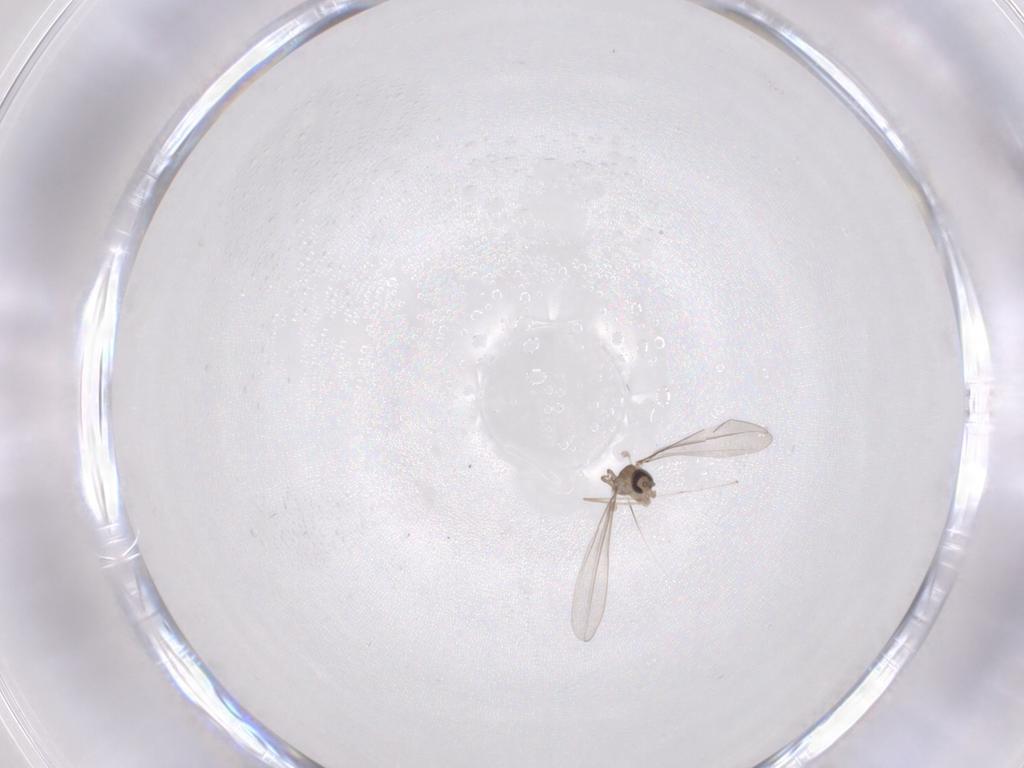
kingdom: Animalia
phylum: Arthropoda
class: Insecta
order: Diptera
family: Cecidomyiidae
